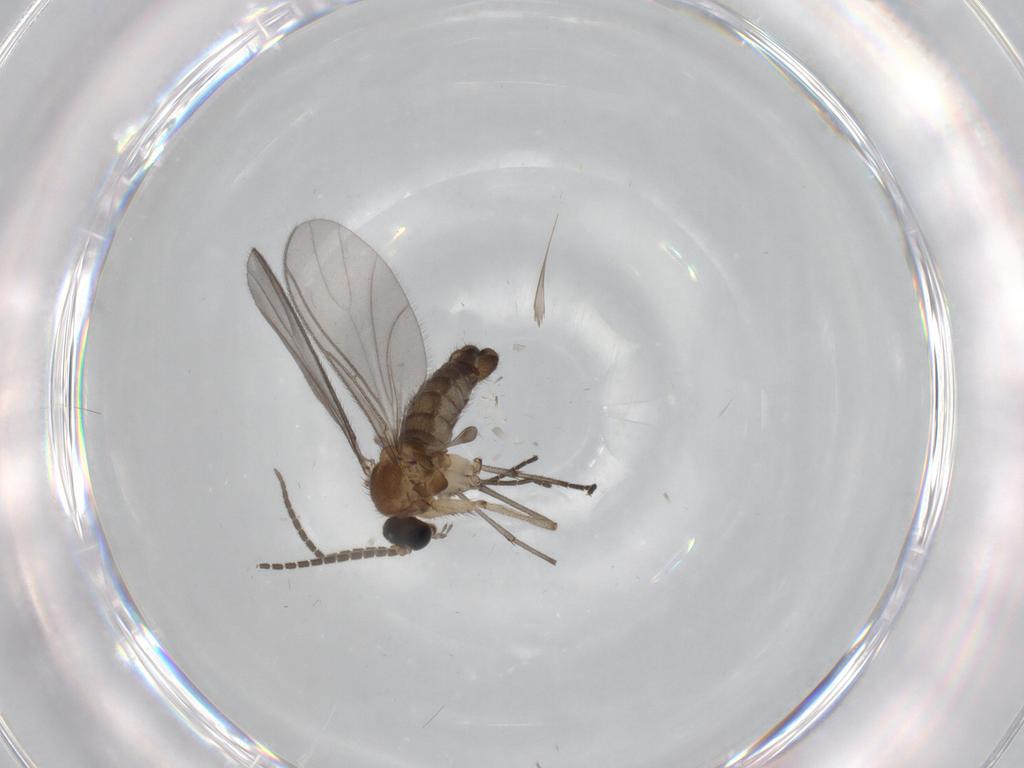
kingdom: Animalia
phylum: Arthropoda
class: Insecta
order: Diptera
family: Sciaridae
